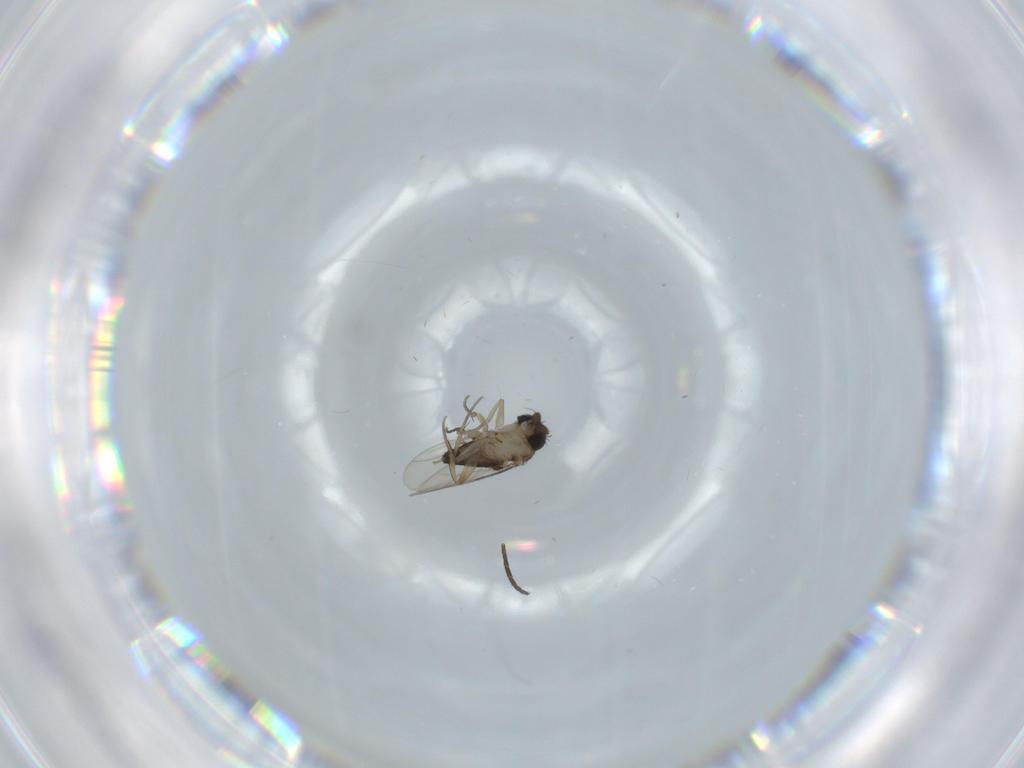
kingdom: Animalia
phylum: Arthropoda
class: Insecta
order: Diptera
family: Phoridae
